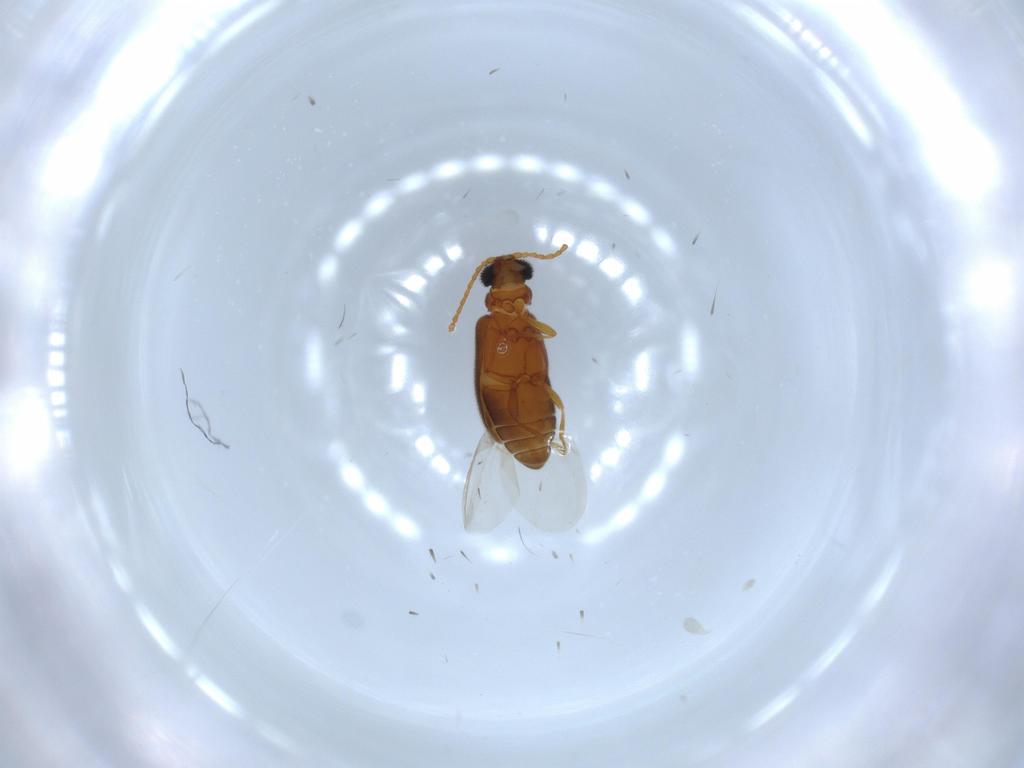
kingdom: Animalia
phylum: Arthropoda
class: Insecta
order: Coleoptera
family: Aderidae
